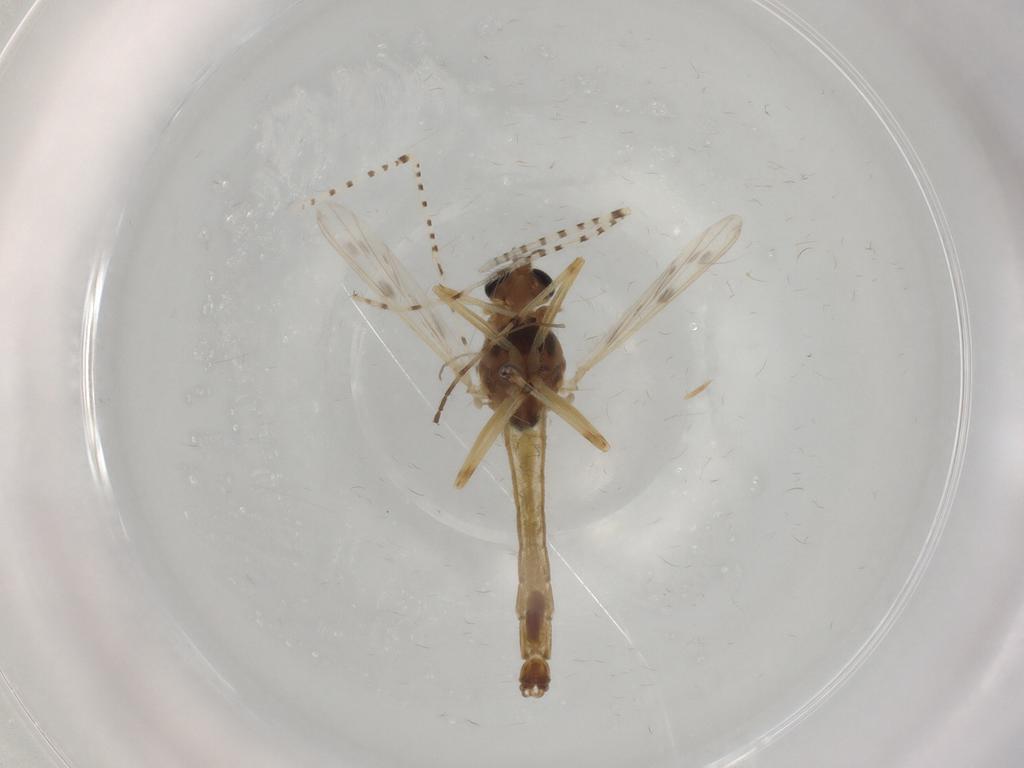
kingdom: Animalia
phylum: Arthropoda
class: Insecta
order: Diptera
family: Chironomidae
